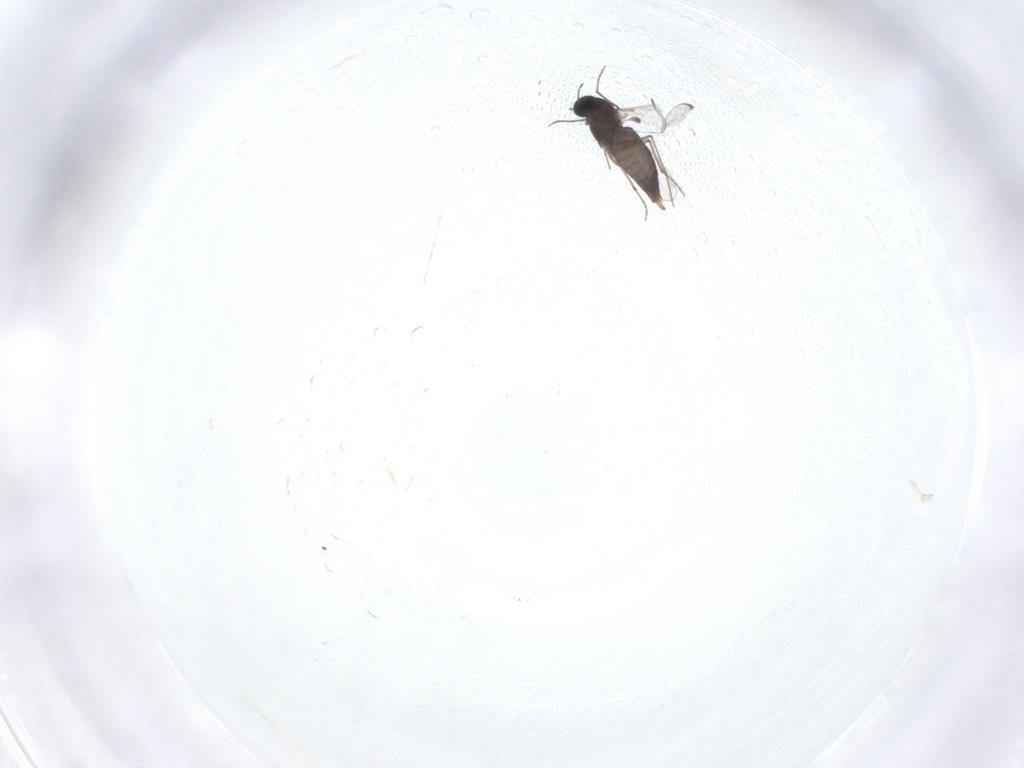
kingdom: Animalia
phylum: Arthropoda
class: Insecta
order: Diptera
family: Chironomidae
